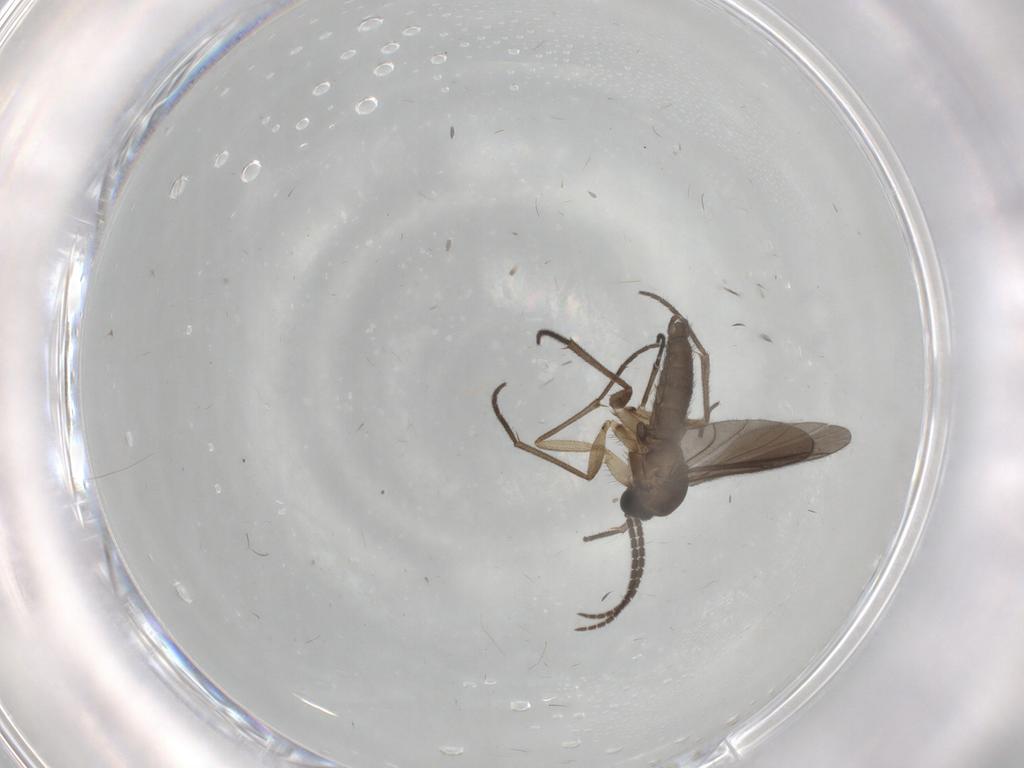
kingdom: Animalia
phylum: Arthropoda
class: Insecta
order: Diptera
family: Sciaridae
